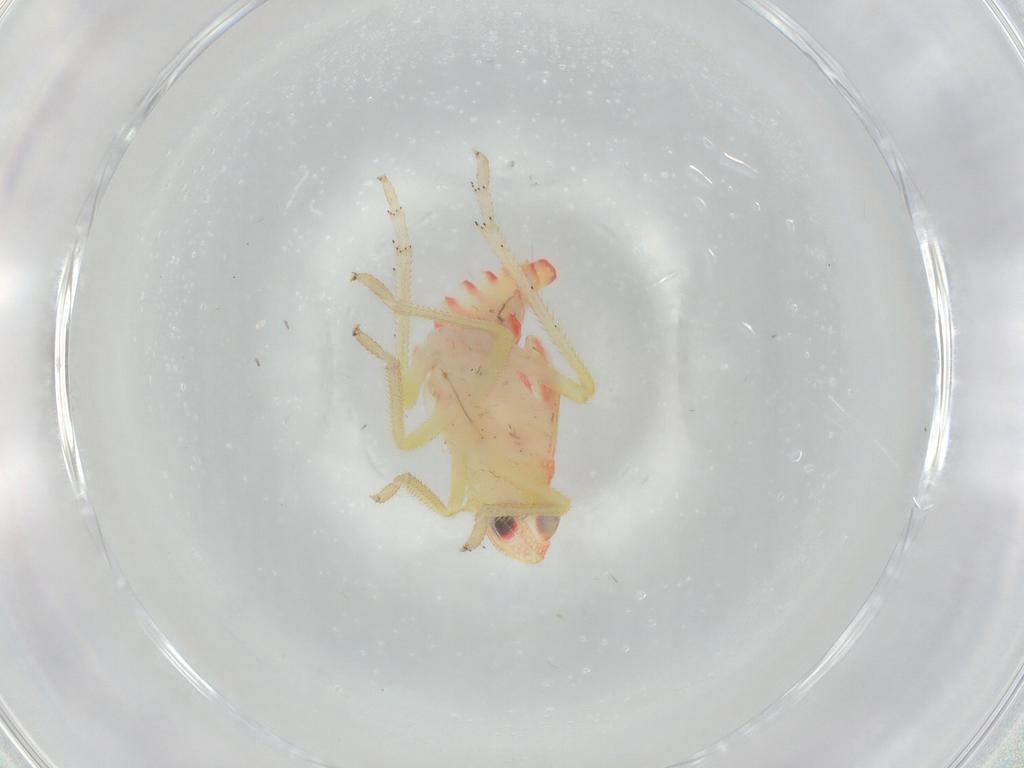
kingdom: Animalia
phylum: Arthropoda
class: Insecta
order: Hemiptera
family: Tropiduchidae
